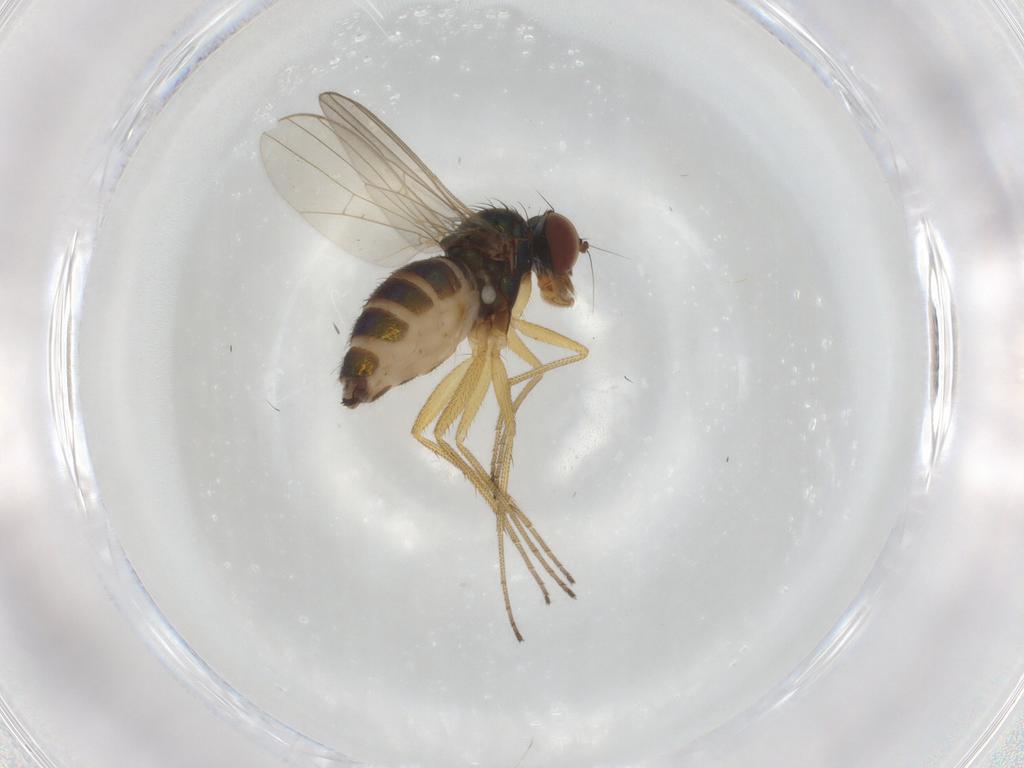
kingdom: Animalia
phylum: Arthropoda
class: Insecta
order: Diptera
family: Dolichopodidae
